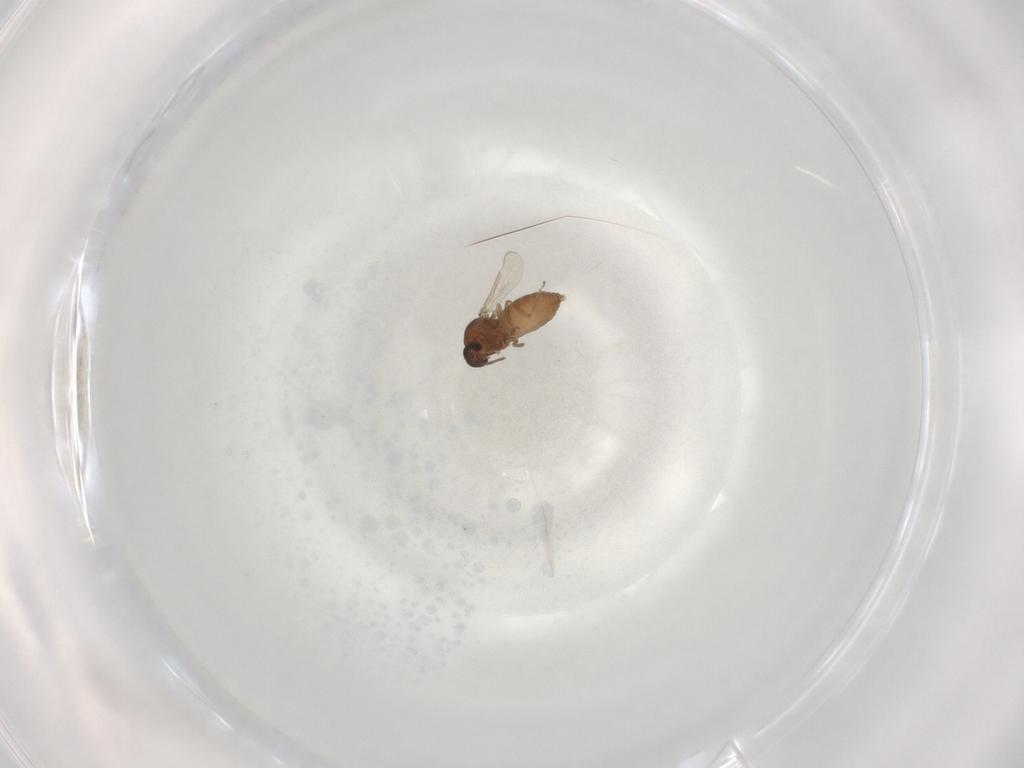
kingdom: Animalia
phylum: Arthropoda
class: Insecta
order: Diptera
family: Ceratopogonidae
